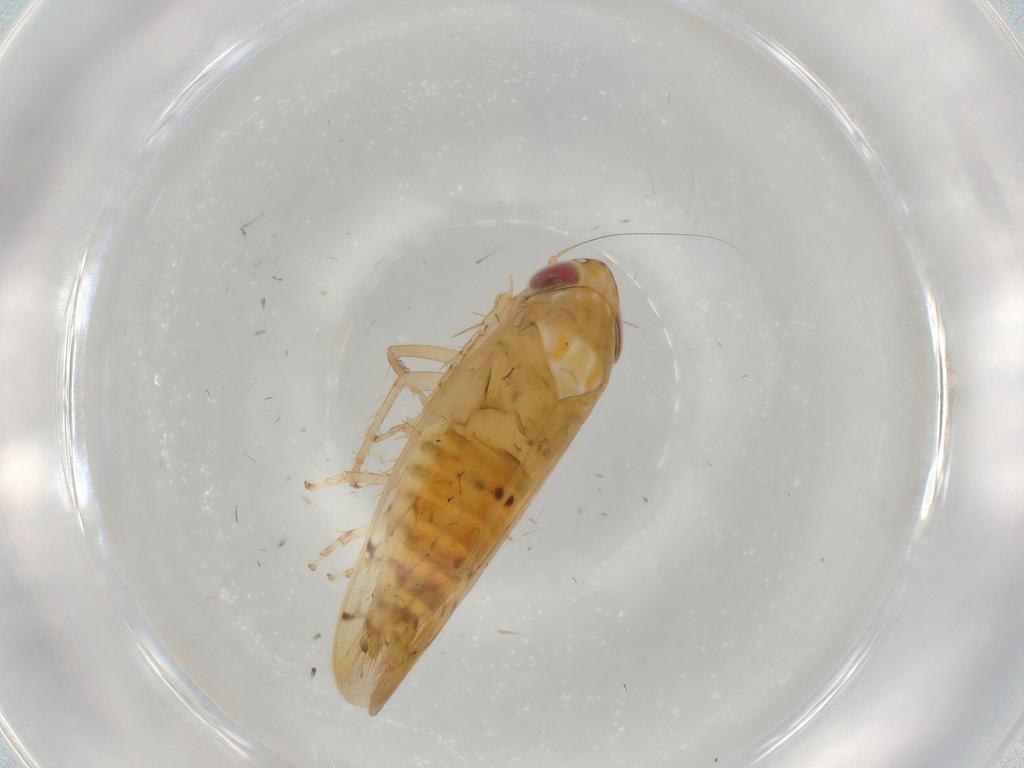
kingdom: Animalia
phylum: Arthropoda
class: Insecta
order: Hemiptera
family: Cicadellidae
